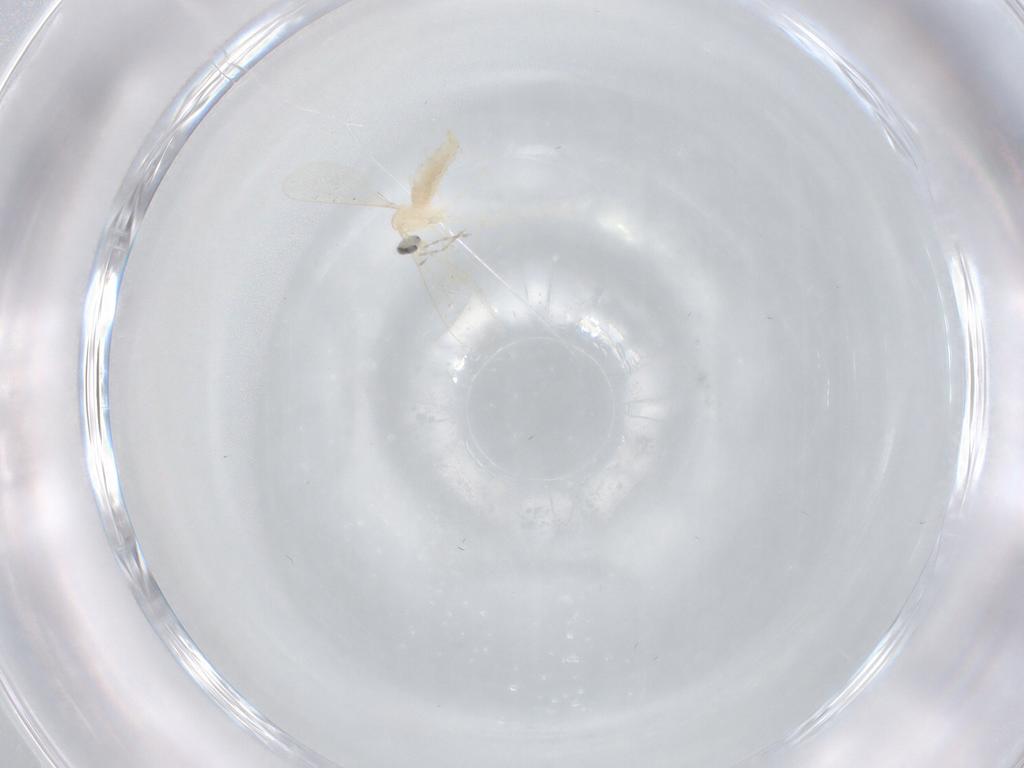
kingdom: Animalia
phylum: Arthropoda
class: Insecta
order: Diptera
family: Cecidomyiidae
